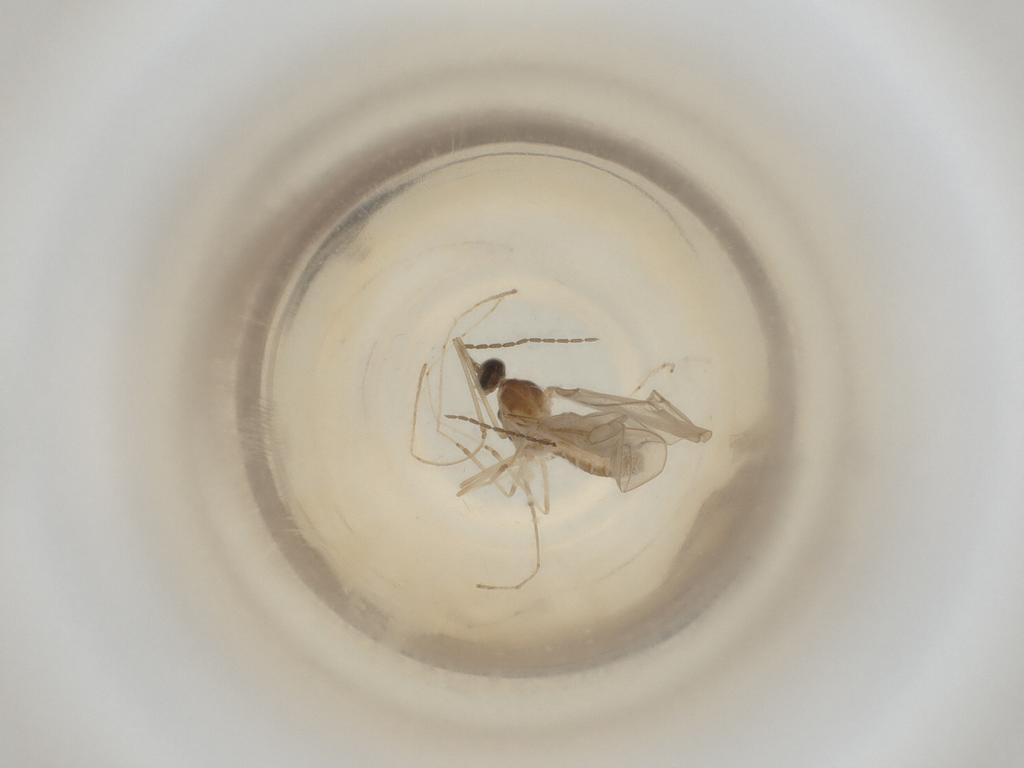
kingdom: Animalia
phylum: Arthropoda
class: Insecta
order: Diptera
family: Cecidomyiidae
